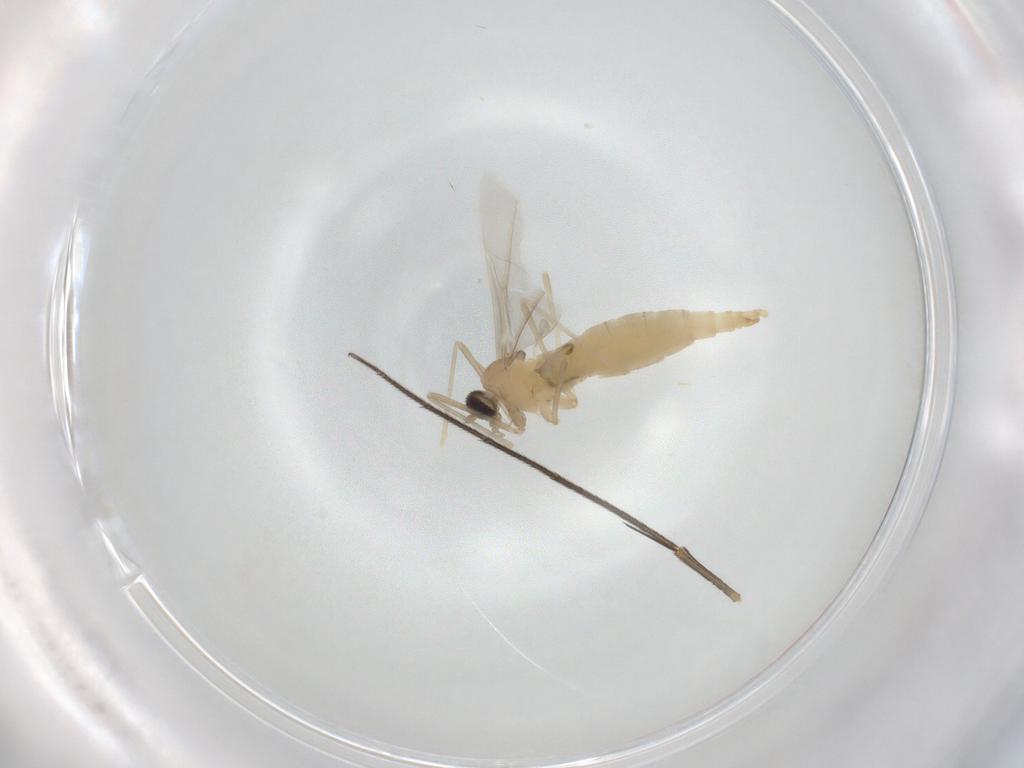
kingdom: Animalia
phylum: Arthropoda
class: Insecta
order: Diptera
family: Cecidomyiidae
